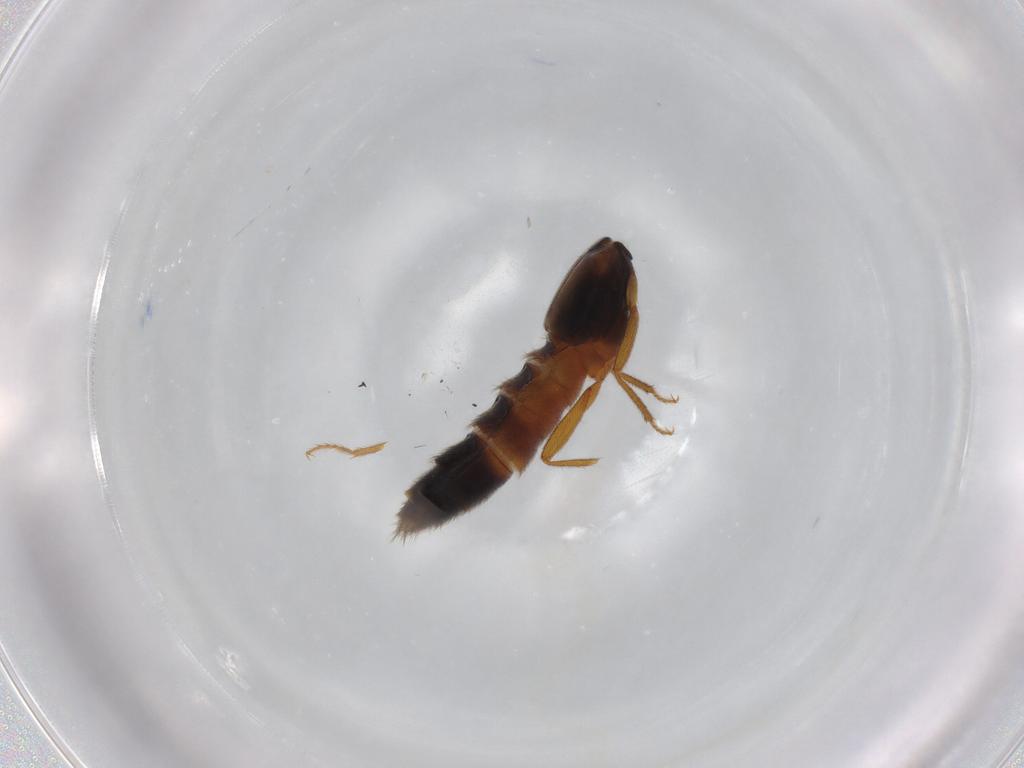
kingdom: Animalia
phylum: Arthropoda
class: Insecta
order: Coleoptera
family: Staphylinidae
